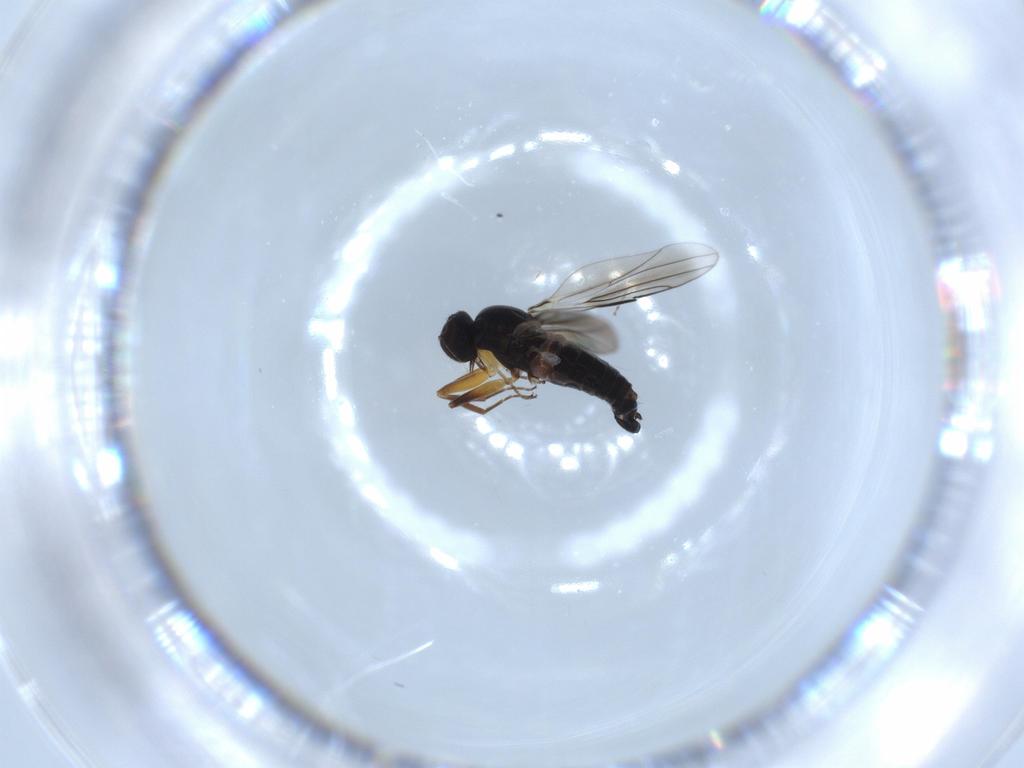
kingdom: Animalia
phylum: Arthropoda
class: Insecta
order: Diptera
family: Hybotidae
